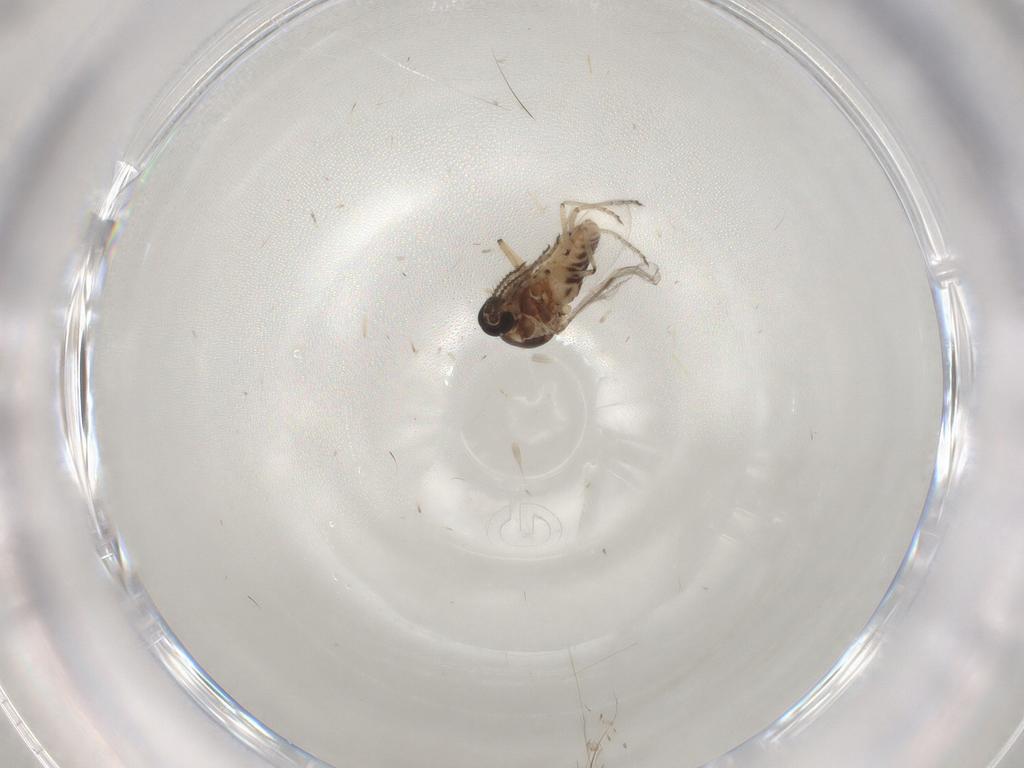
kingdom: Animalia
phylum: Arthropoda
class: Insecta
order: Diptera
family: Ceratopogonidae
